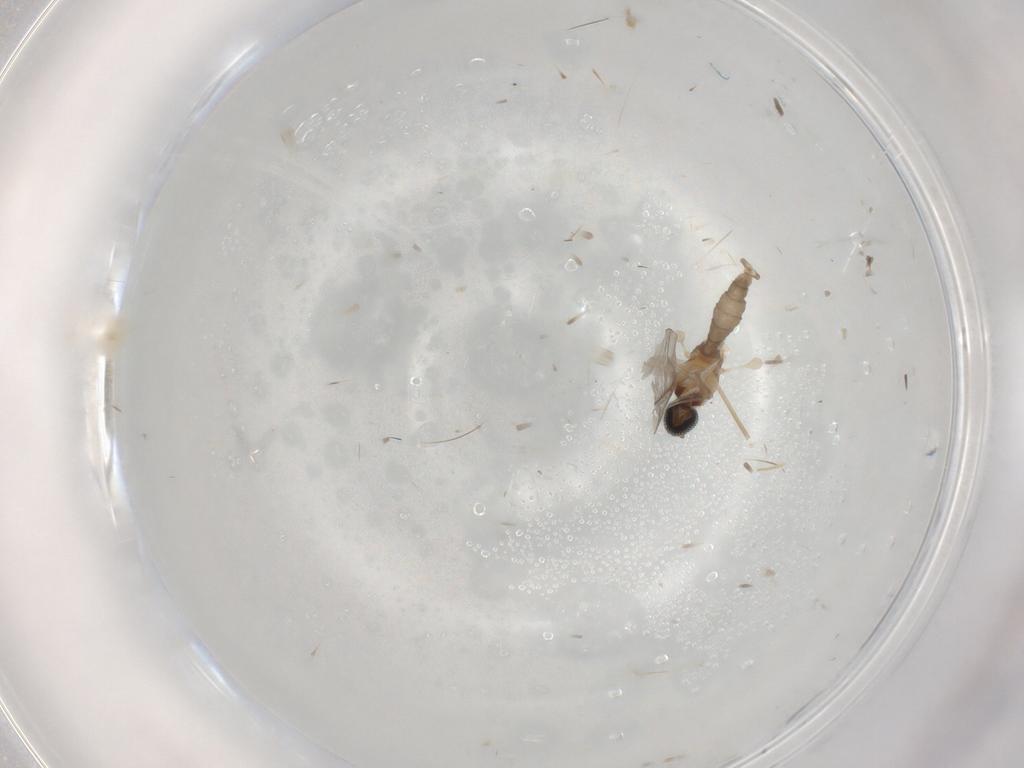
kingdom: Animalia
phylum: Arthropoda
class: Insecta
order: Diptera
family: Cecidomyiidae
